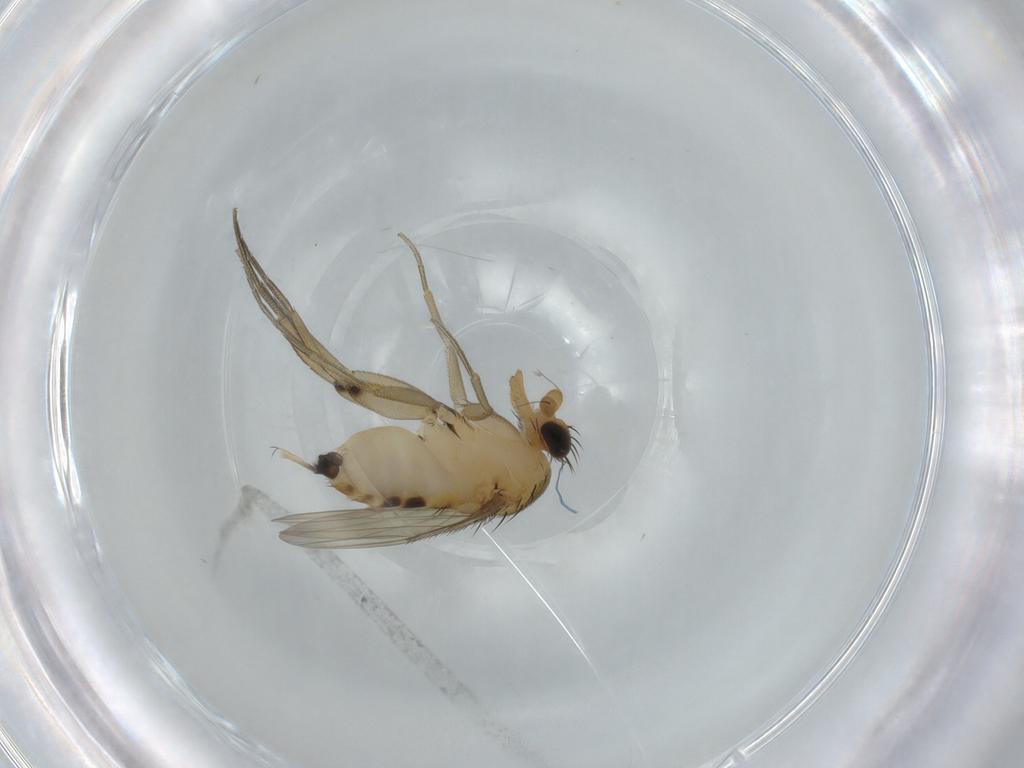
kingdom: Animalia
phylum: Arthropoda
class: Insecta
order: Diptera
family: Phoridae
